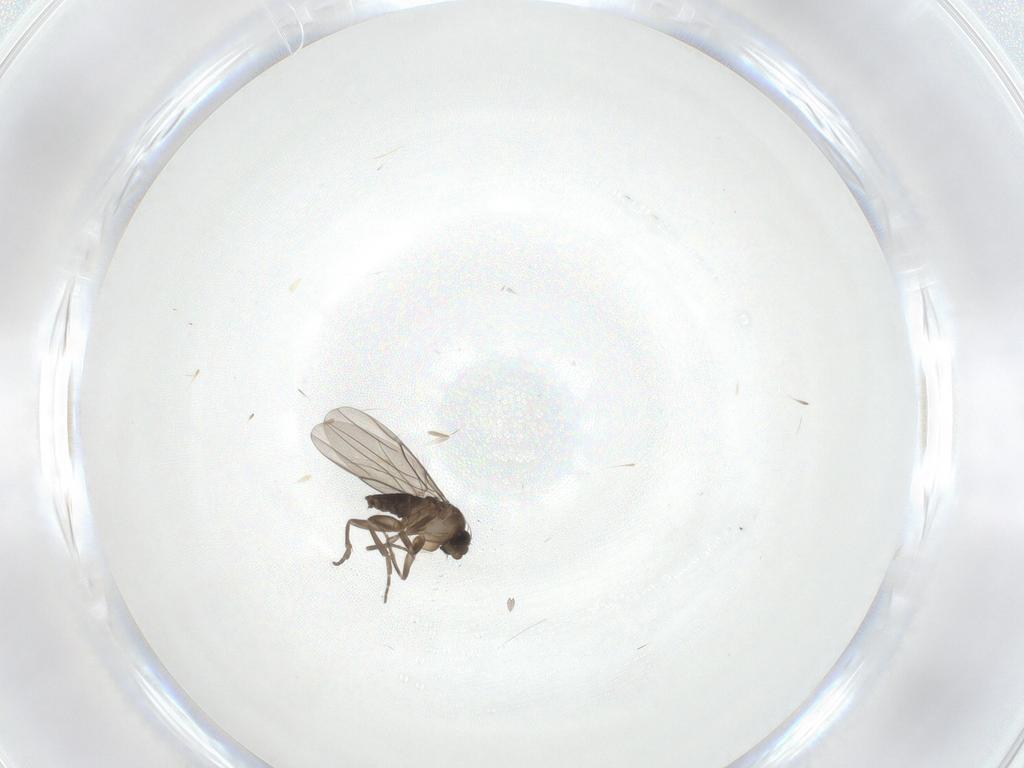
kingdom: Animalia
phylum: Arthropoda
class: Insecta
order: Diptera
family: Phoridae
